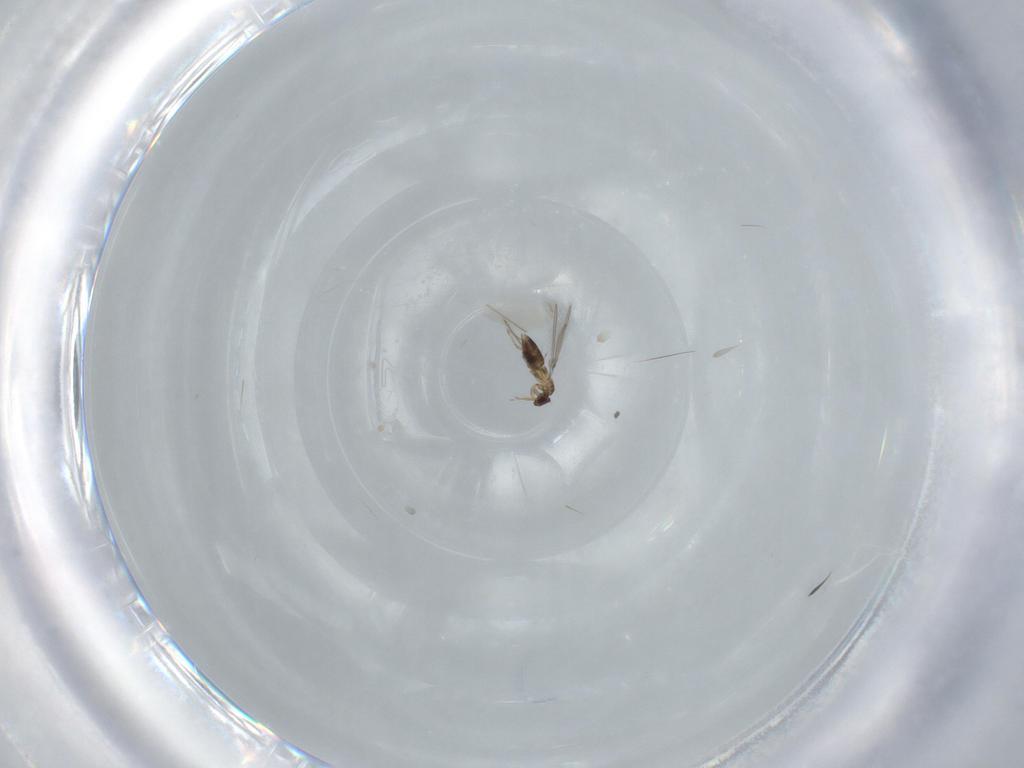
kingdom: Animalia
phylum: Arthropoda
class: Insecta
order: Hymenoptera
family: Mymaridae
